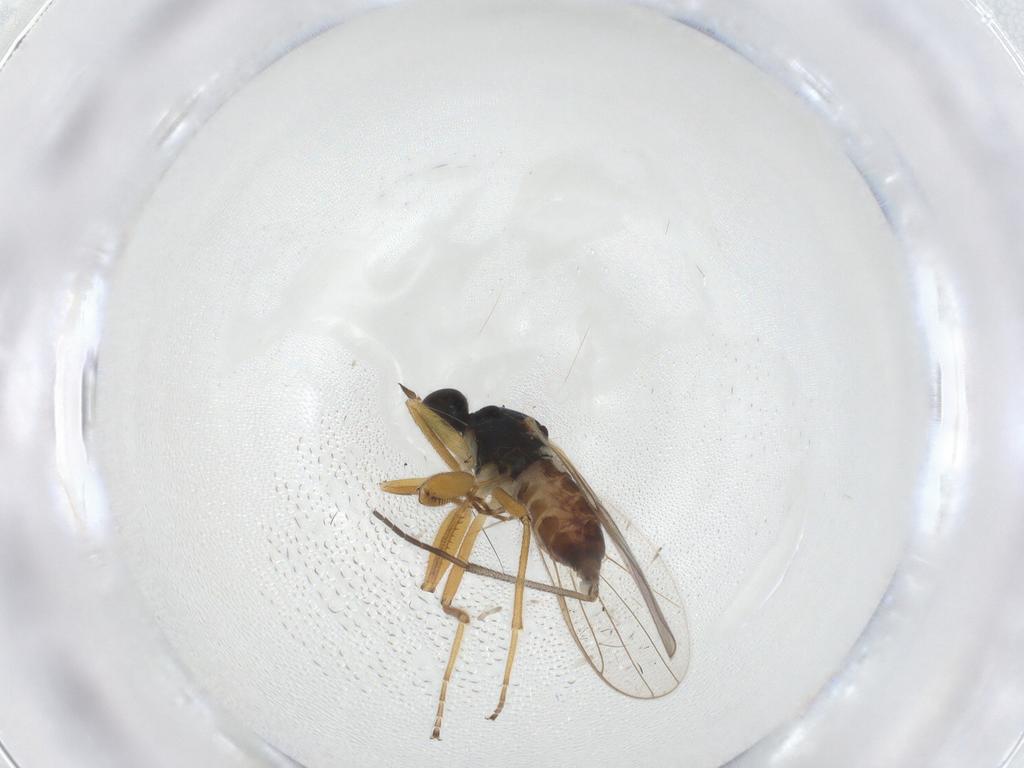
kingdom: Animalia
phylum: Arthropoda
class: Insecta
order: Diptera
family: Hybotidae
